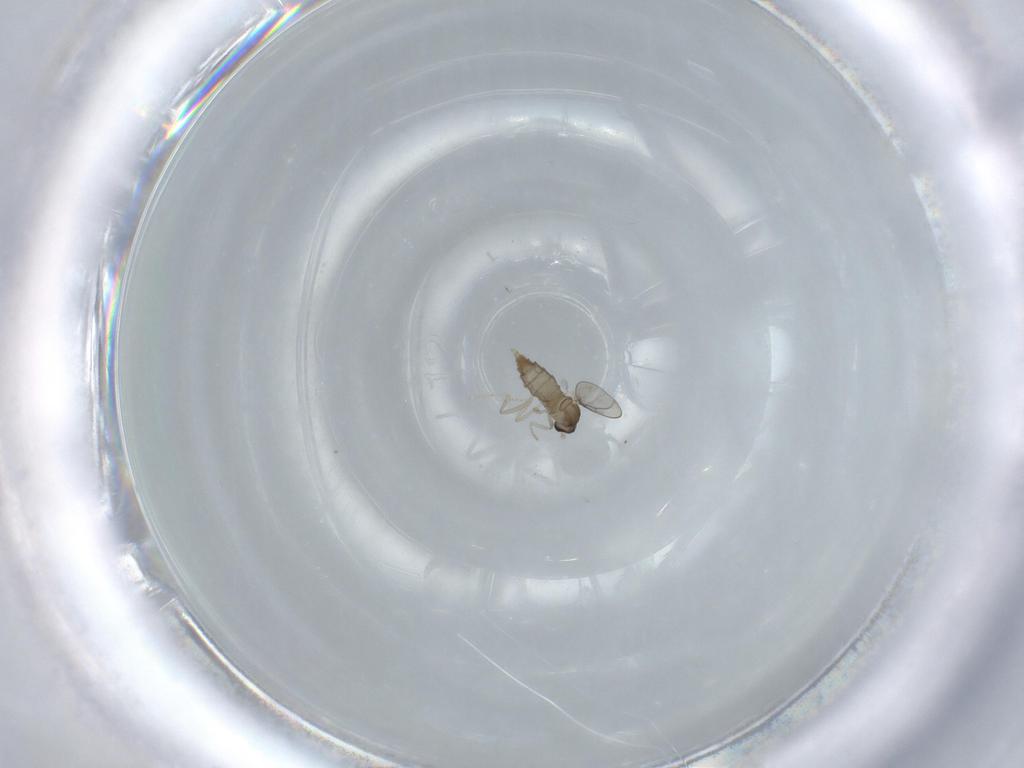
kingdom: Animalia
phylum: Arthropoda
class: Insecta
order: Diptera
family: Cecidomyiidae
